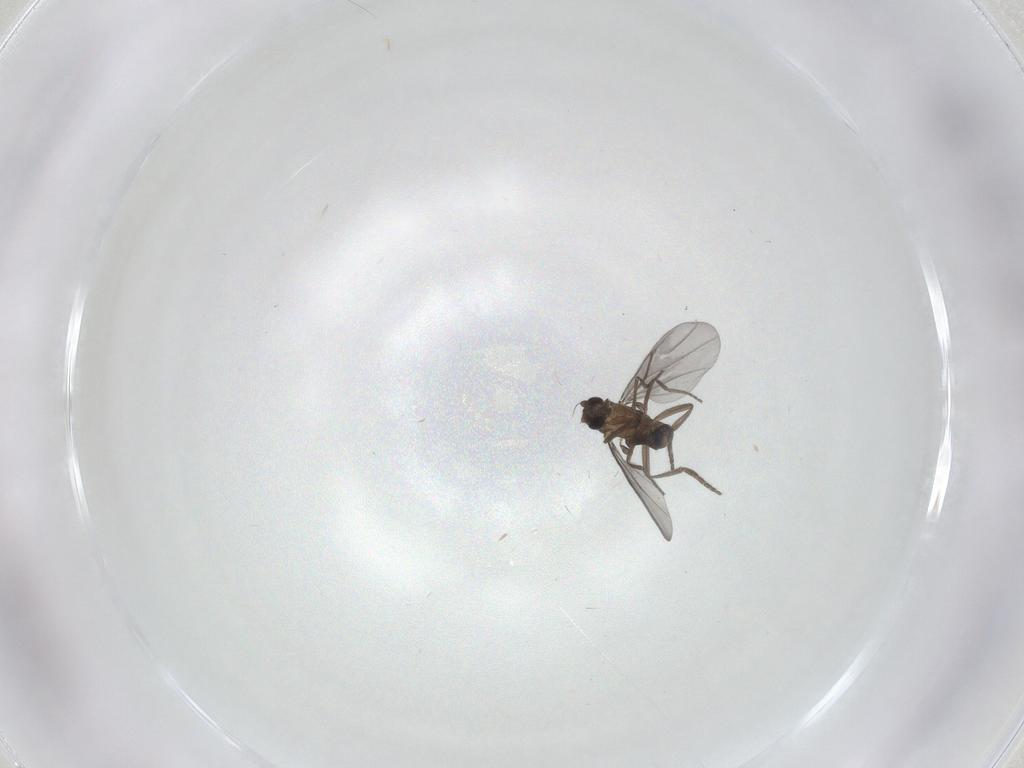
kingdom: Animalia
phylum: Arthropoda
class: Insecta
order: Diptera
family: Chironomidae
